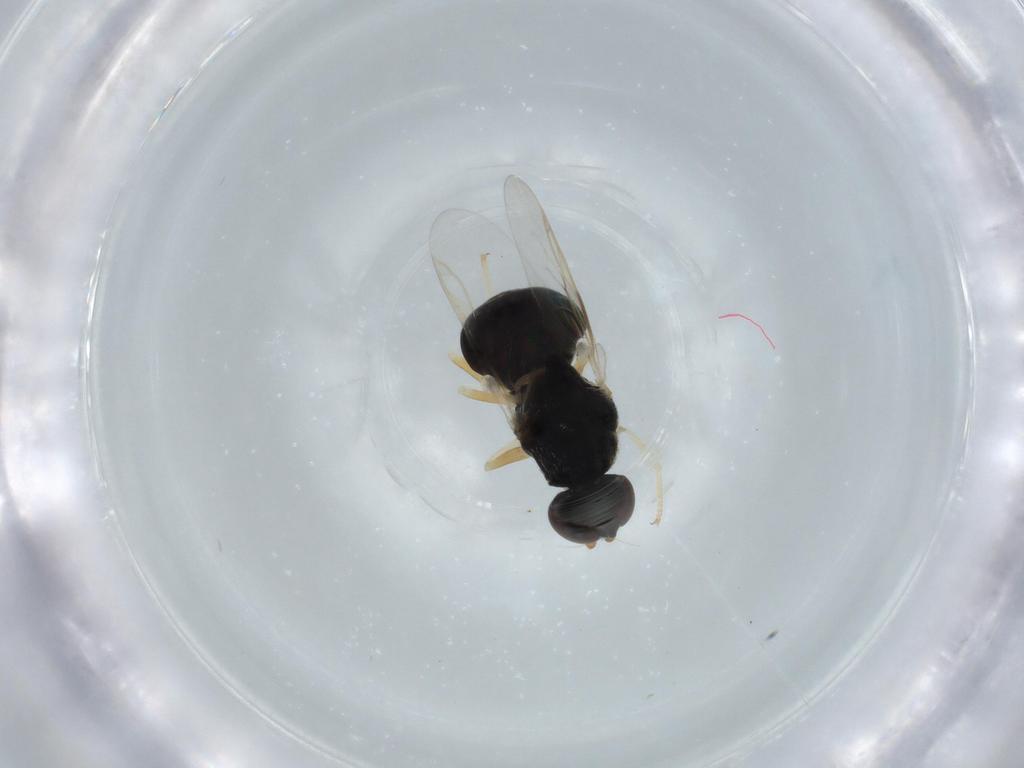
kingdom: Animalia
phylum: Arthropoda
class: Insecta
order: Diptera
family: Stratiomyidae
